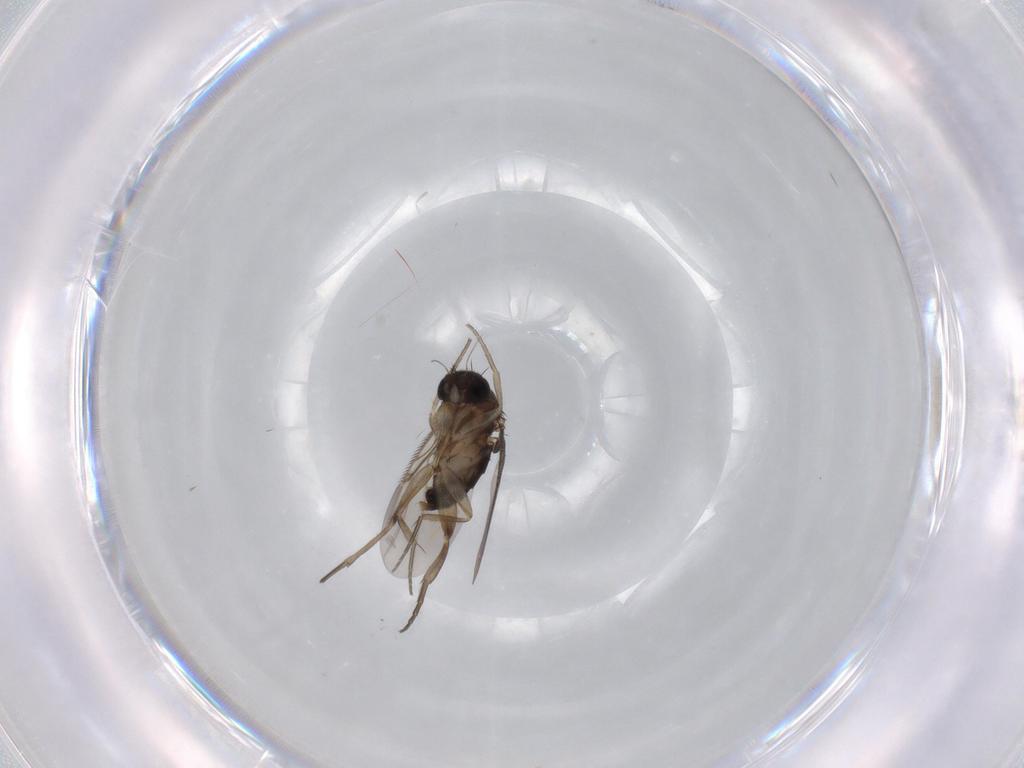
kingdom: Animalia
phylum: Arthropoda
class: Insecta
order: Diptera
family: Phoridae
